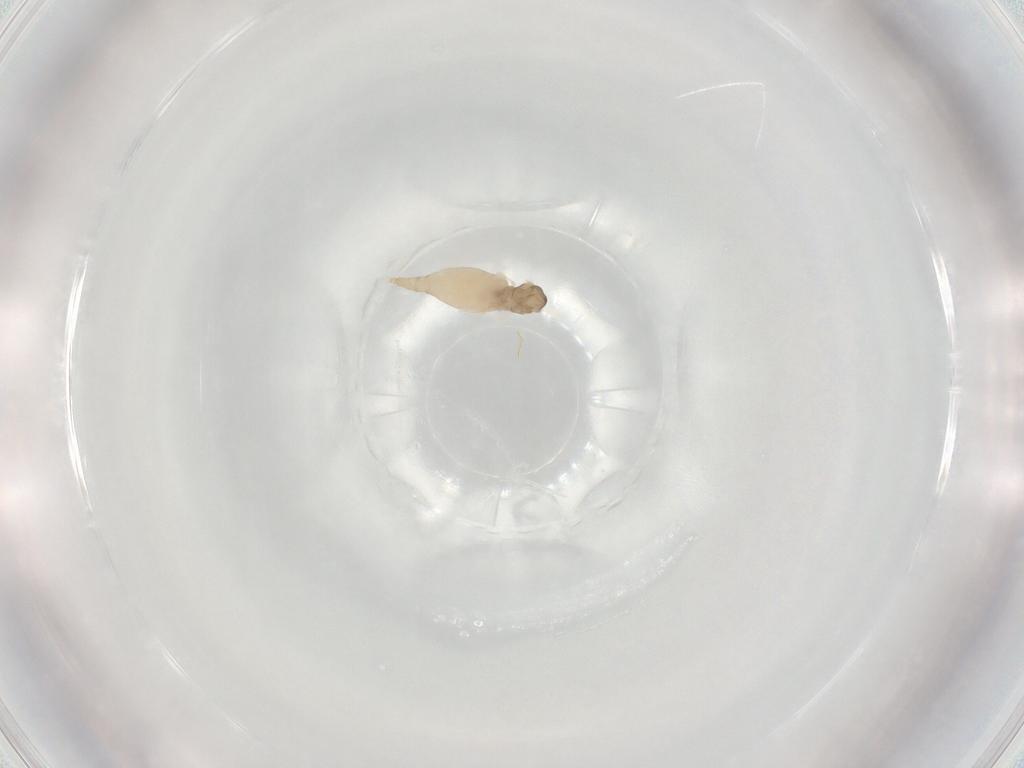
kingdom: Animalia
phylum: Arthropoda
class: Insecta
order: Diptera
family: Cecidomyiidae
